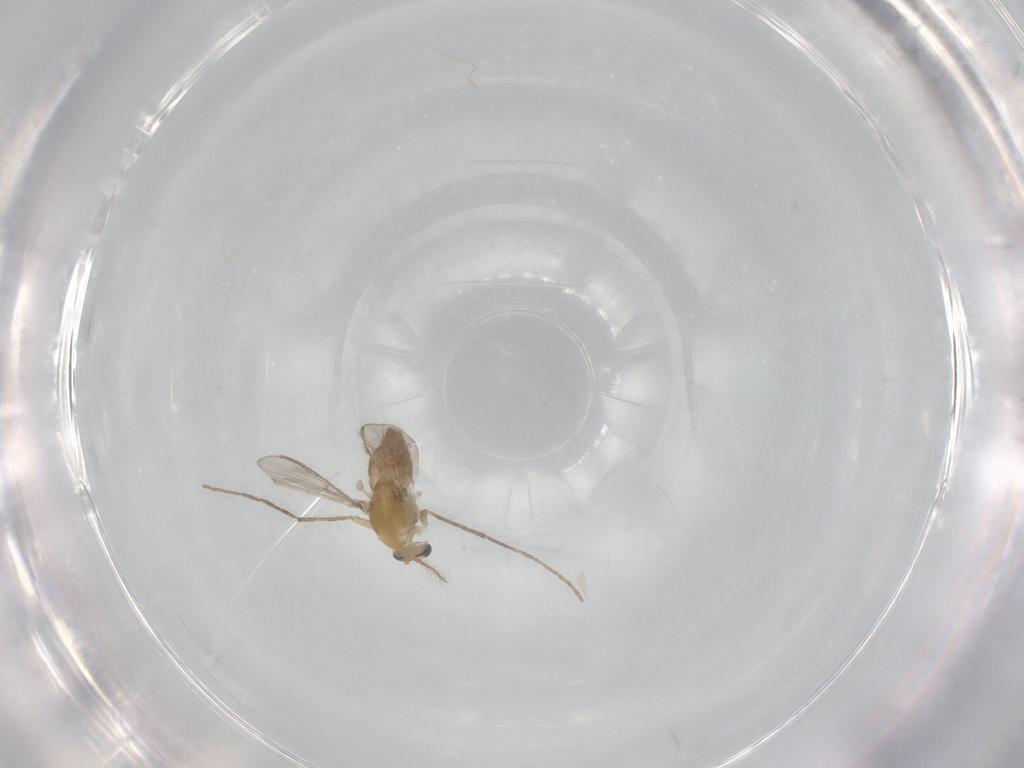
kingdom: Animalia
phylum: Arthropoda
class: Insecta
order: Diptera
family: Chironomidae
